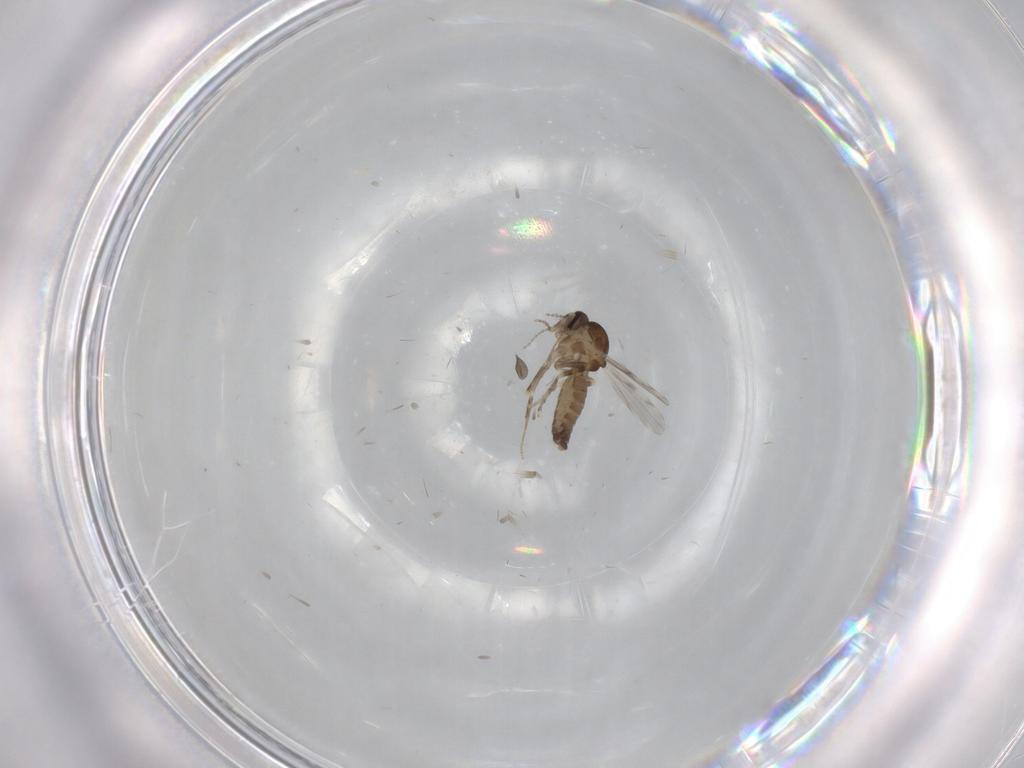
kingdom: Animalia
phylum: Arthropoda
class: Insecta
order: Diptera
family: Ceratopogonidae
